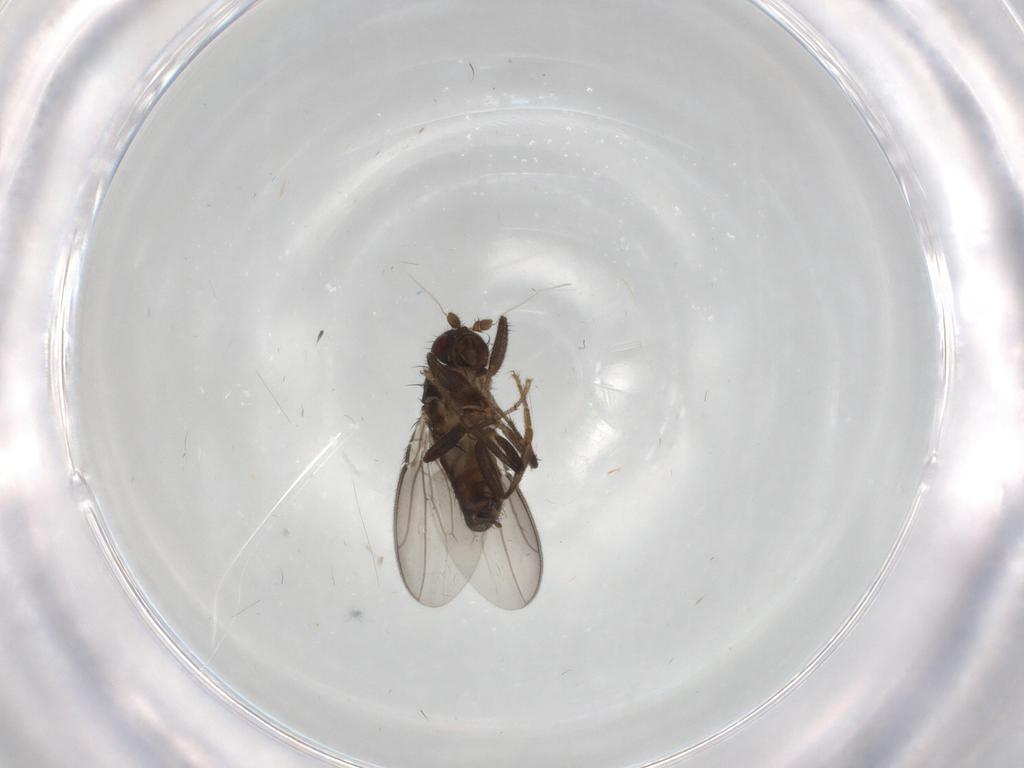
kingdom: Animalia
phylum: Arthropoda
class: Insecta
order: Diptera
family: Sphaeroceridae
